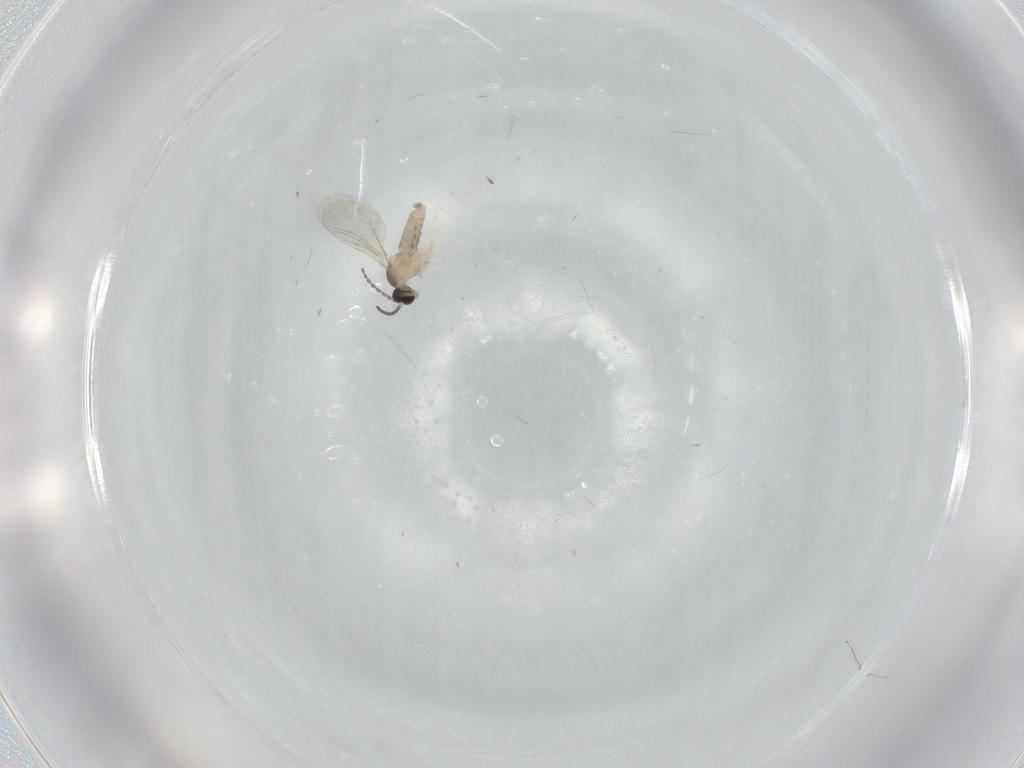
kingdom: Animalia
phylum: Arthropoda
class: Insecta
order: Diptera
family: Cecidomyiidae
